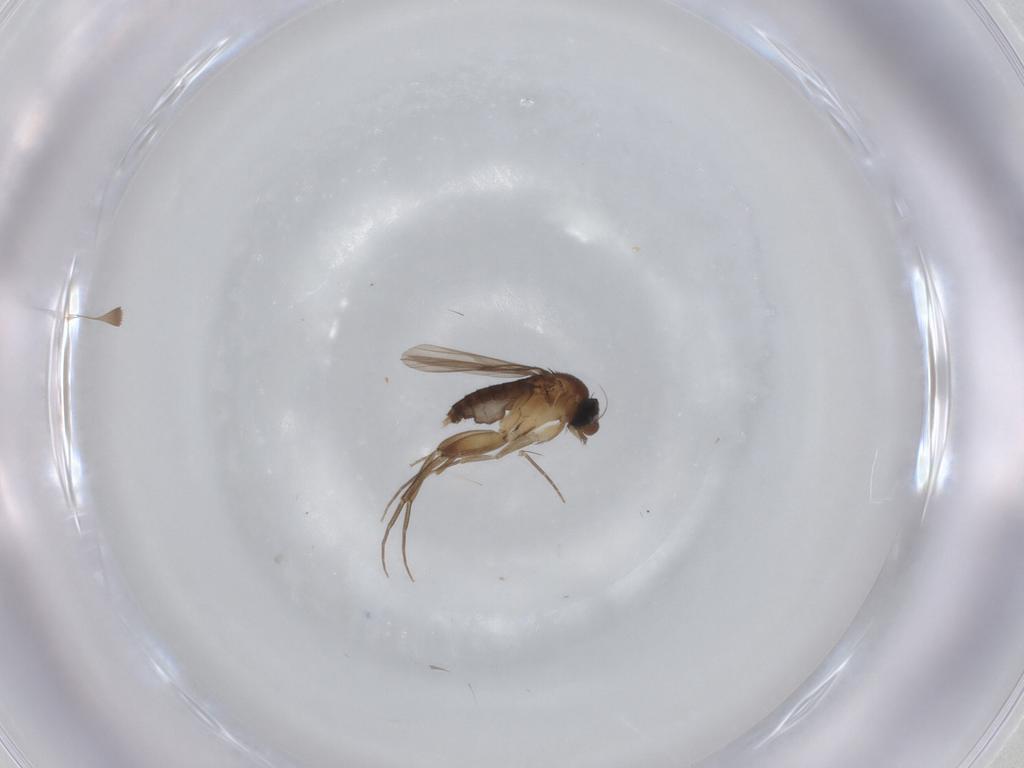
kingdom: Animalia
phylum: Arthropoda
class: Insecta
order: Diptera
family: Phoridae
